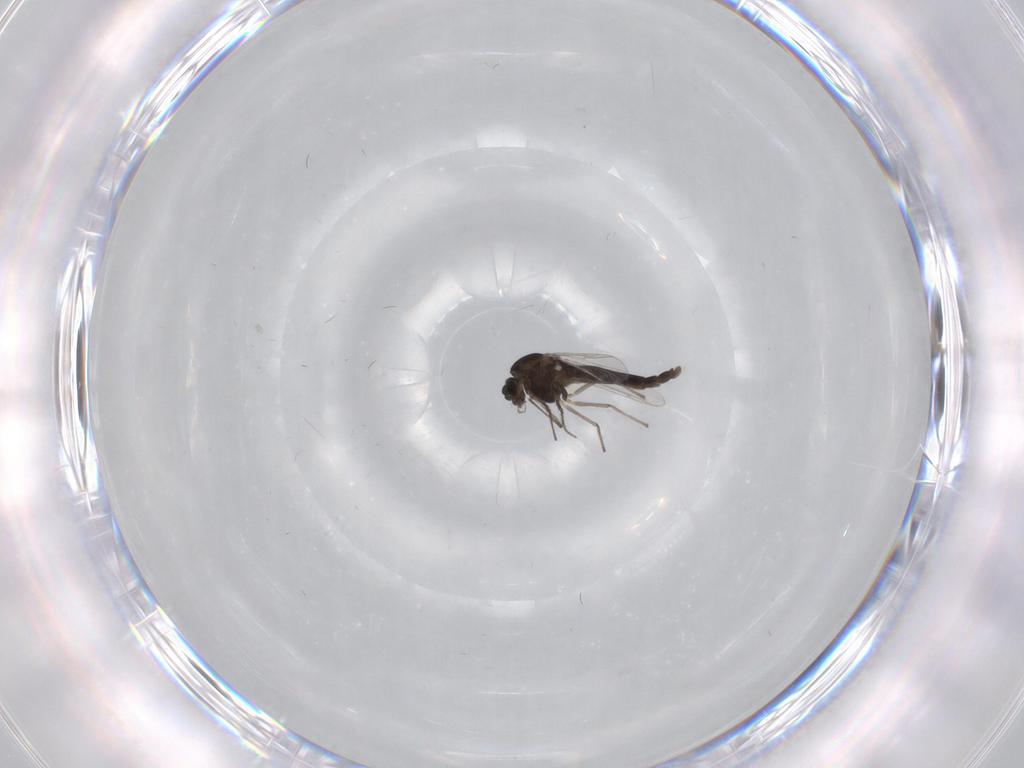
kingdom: Animalia
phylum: Arthropoda
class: Insecta
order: Diptera
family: Chironomidae
